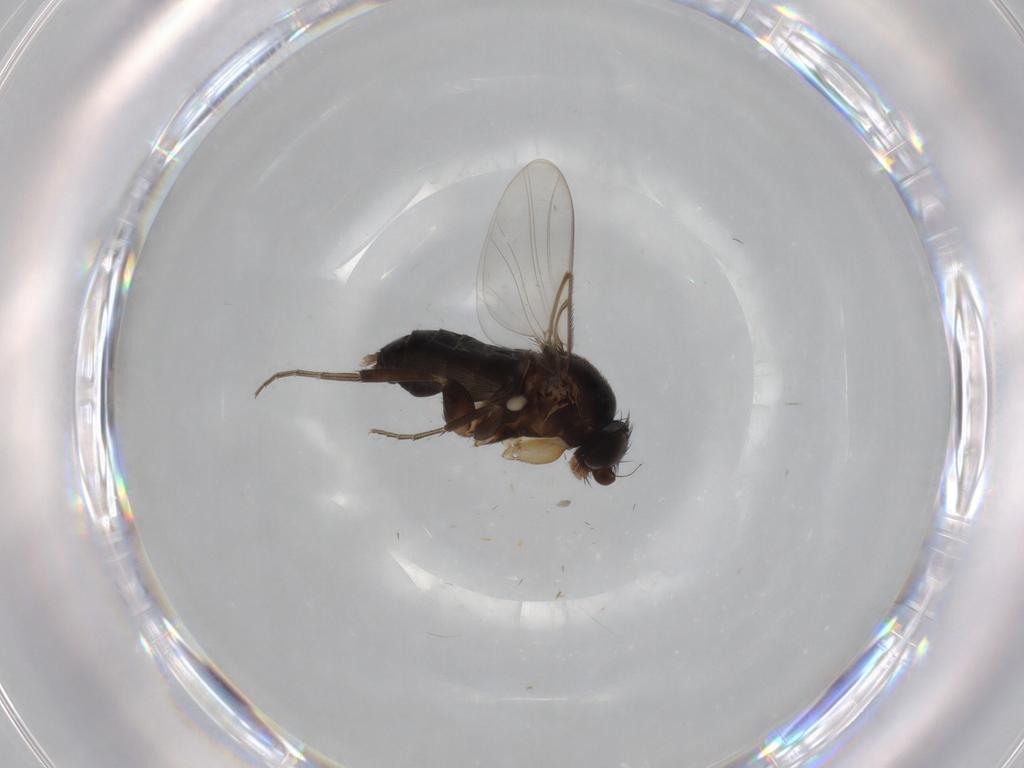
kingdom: Animalia
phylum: Arthropoda
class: Insecta
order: Diptera
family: Phoridae
